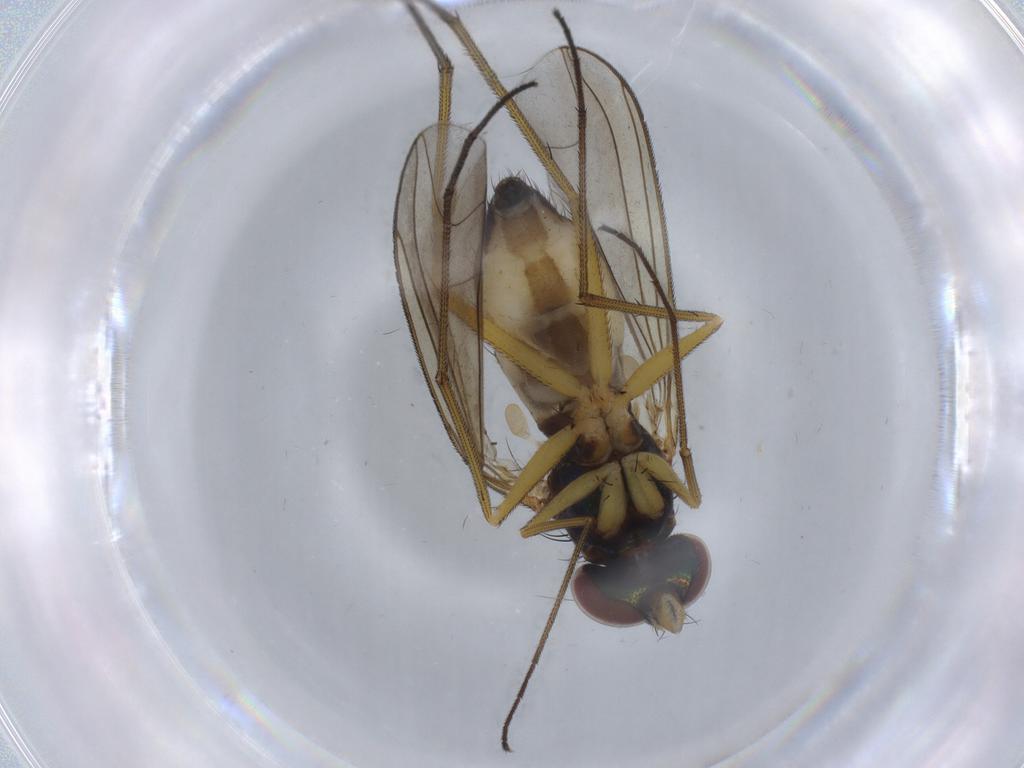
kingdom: Animalia
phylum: Arthropoda
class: Insecta
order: Diptera
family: Dolichopodidae
